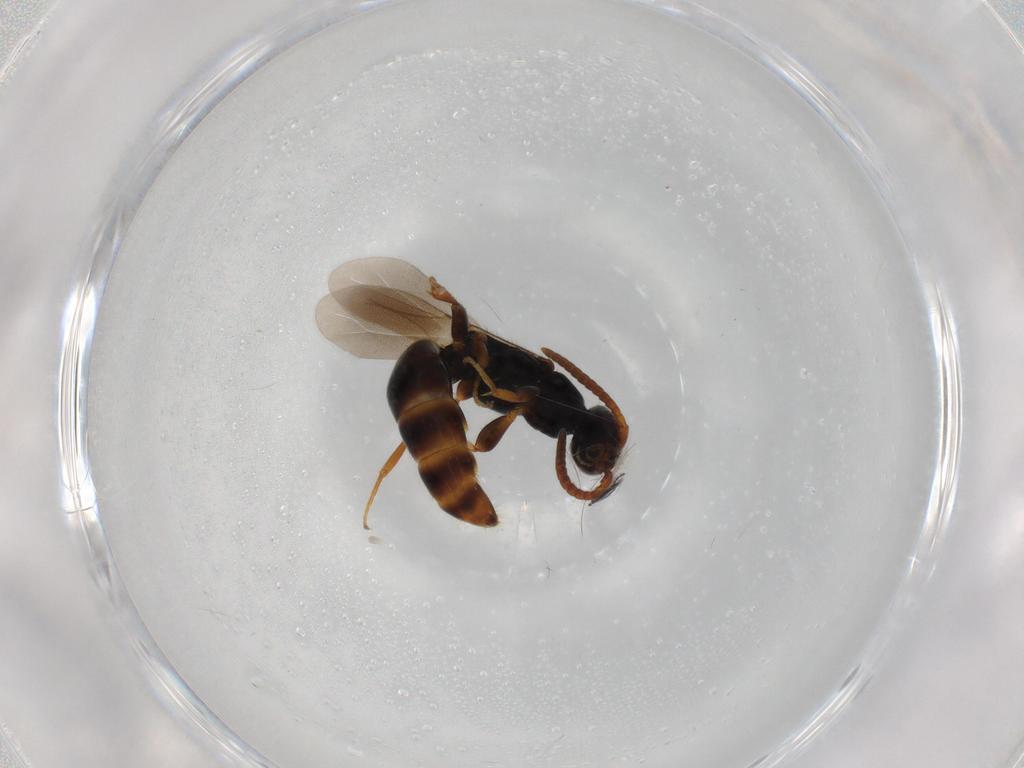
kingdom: Animalia
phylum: Arthropoda
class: Insecta
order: Hymenoptera
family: Bethylidae
